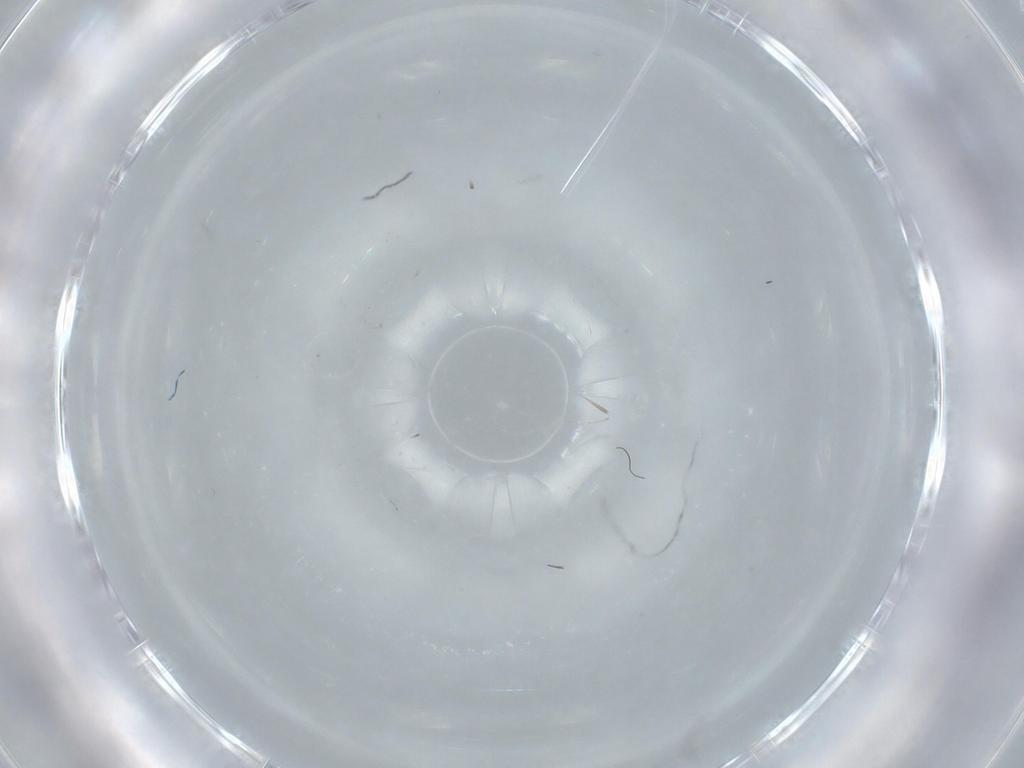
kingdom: Animalia
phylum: Arthropoda
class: Insecta
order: Diptera
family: Cecidomyiidae
